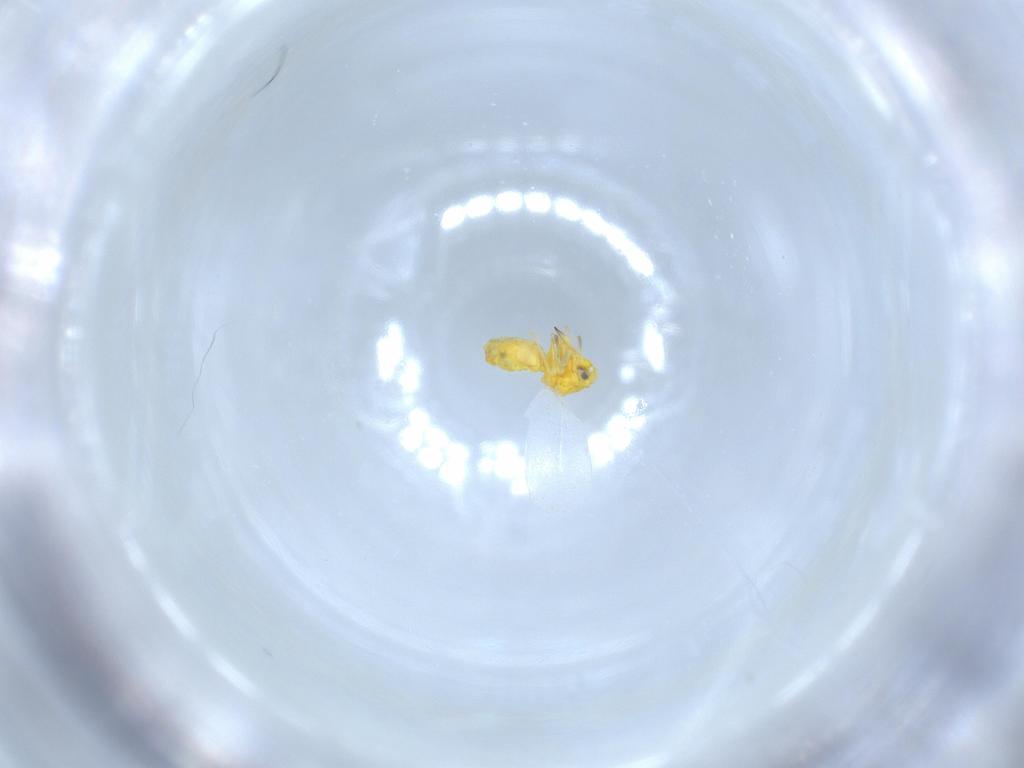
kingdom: Animalia
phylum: Arthropoda
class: Insecta
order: Hemiptera
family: Aleyrodidae
